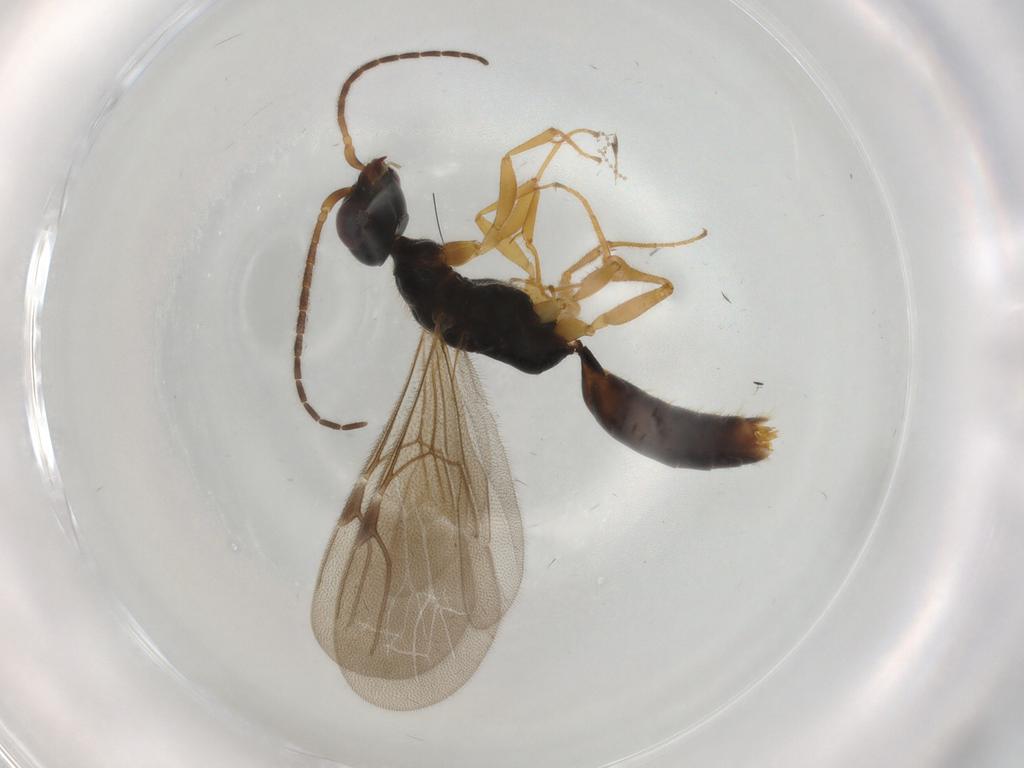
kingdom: Animalia
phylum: Arthropoda
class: Insecta
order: Hymenoptera
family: Bethylidae
